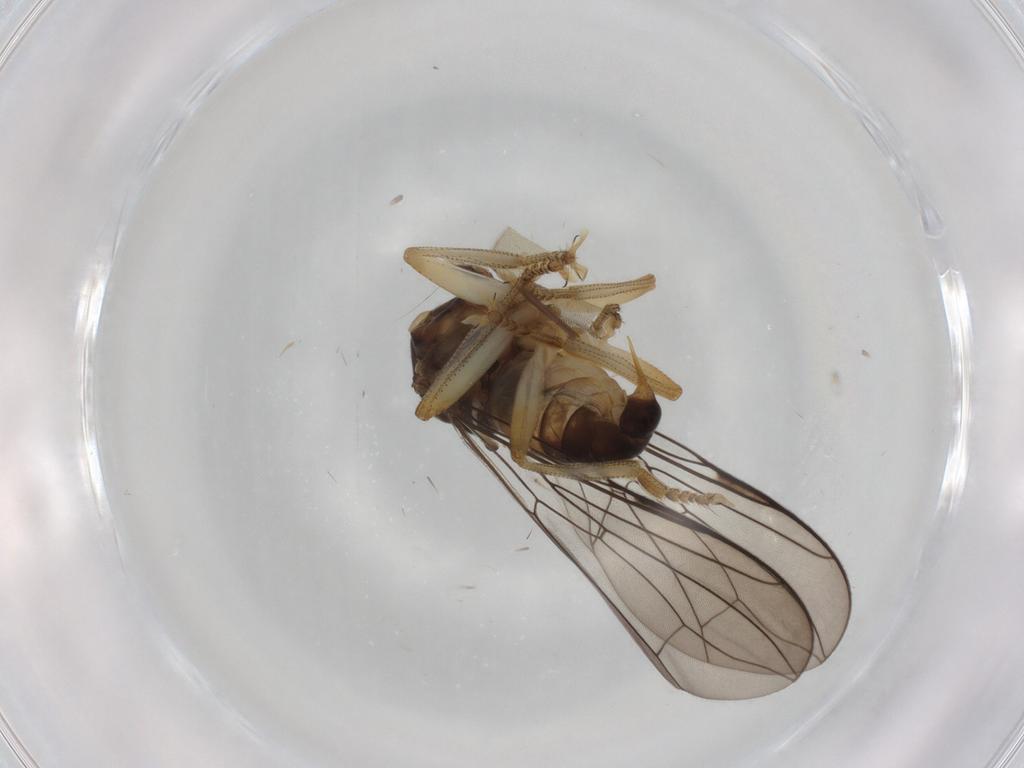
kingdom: Animalia
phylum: Arthropoda
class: Insecta
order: Diptera
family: Pipunculidae
